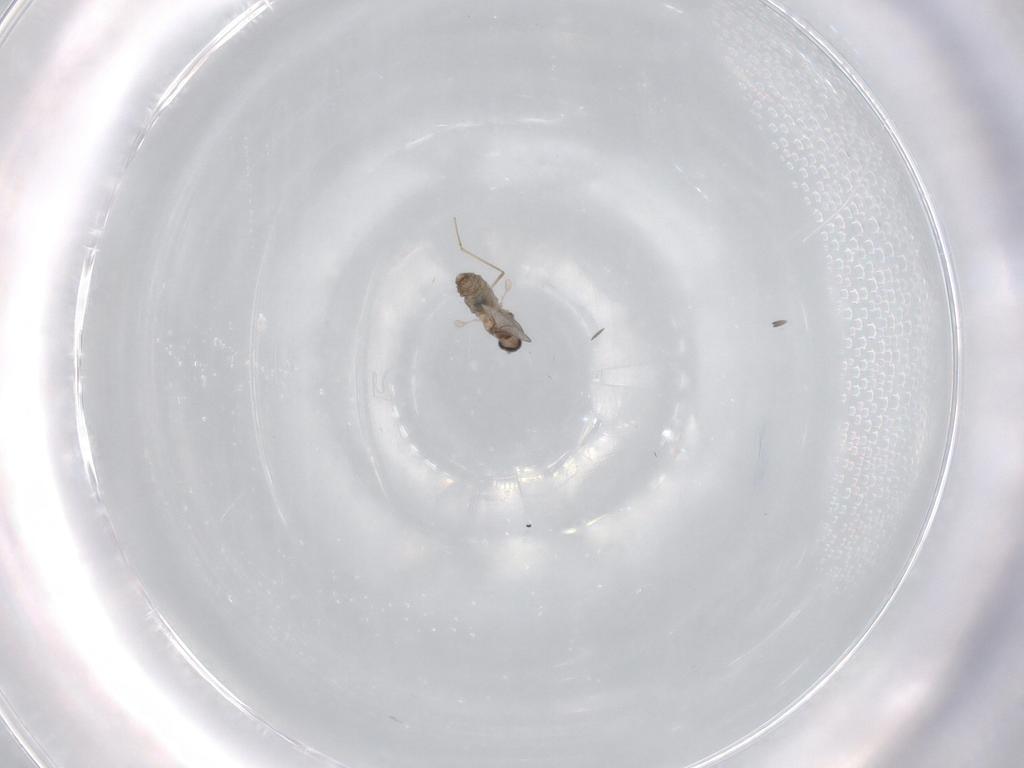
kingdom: Animalia
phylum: Arthropoda
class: Insecta
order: Diptera
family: Cecidomyiidae
